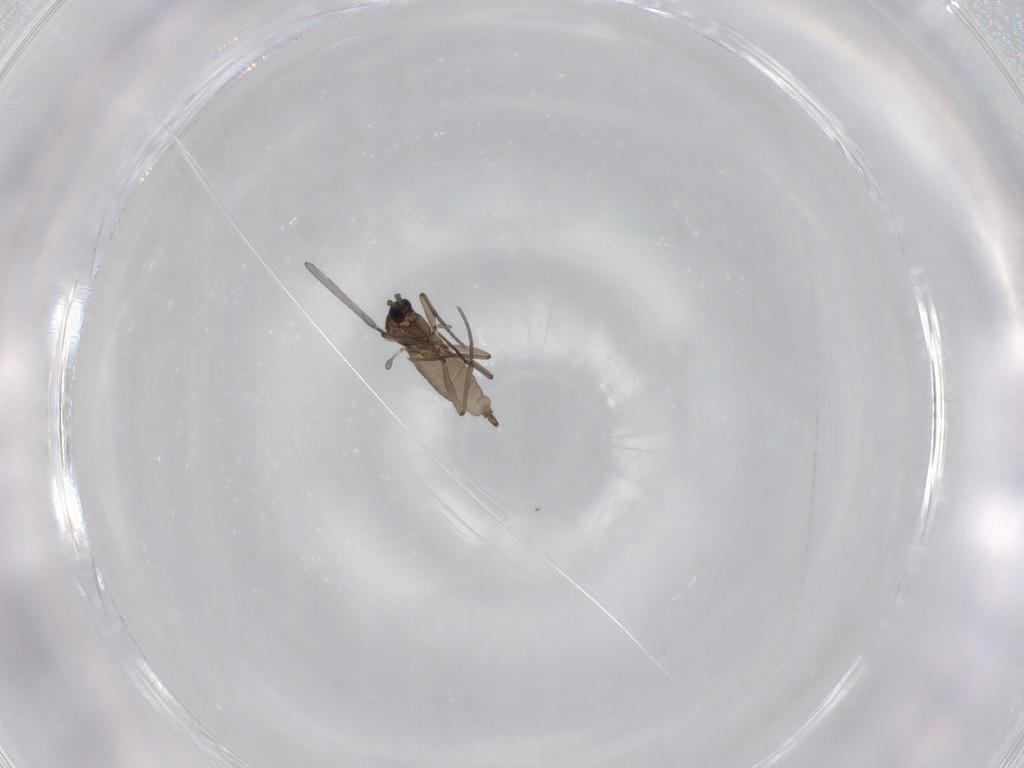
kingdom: Animalia
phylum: Arthropoda
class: Insecta
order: Diptera
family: Sciaridae
